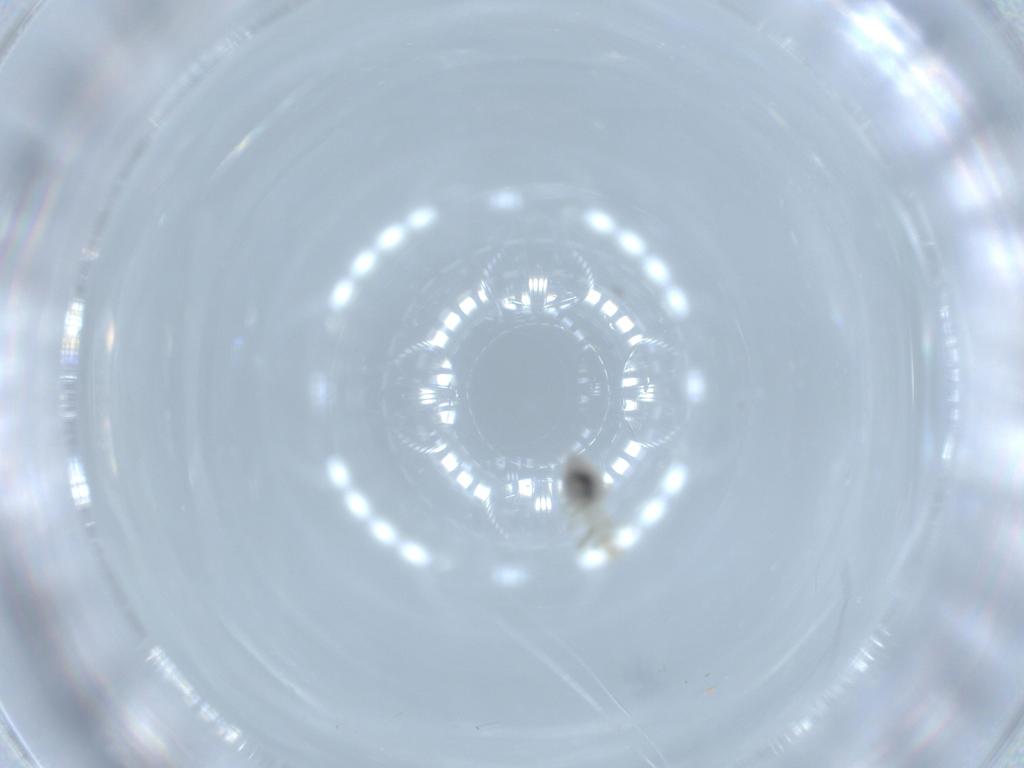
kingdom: Animalia
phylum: Arthropoda
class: Insecta
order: Psocodea
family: Caeciliusidae
